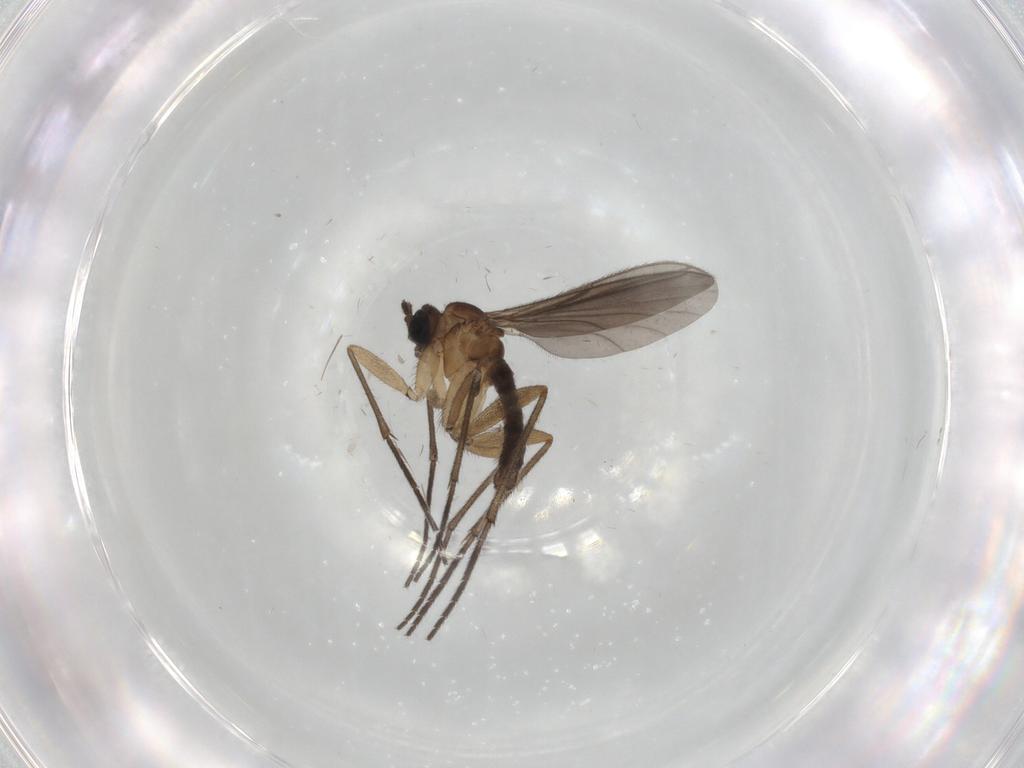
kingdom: Animalia
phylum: Arthropoda
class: Insecta
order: Diptera
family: Sciaridae
